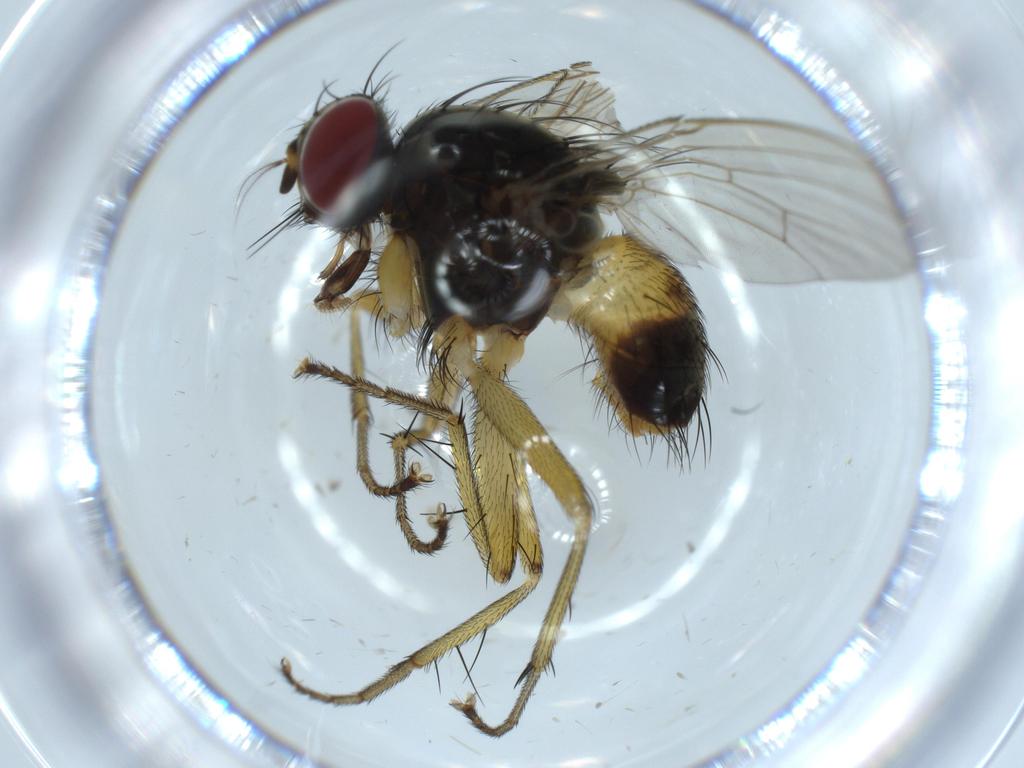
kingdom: Animalia
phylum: Arthropoda
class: Insecta
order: Diptera
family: Muscidae
